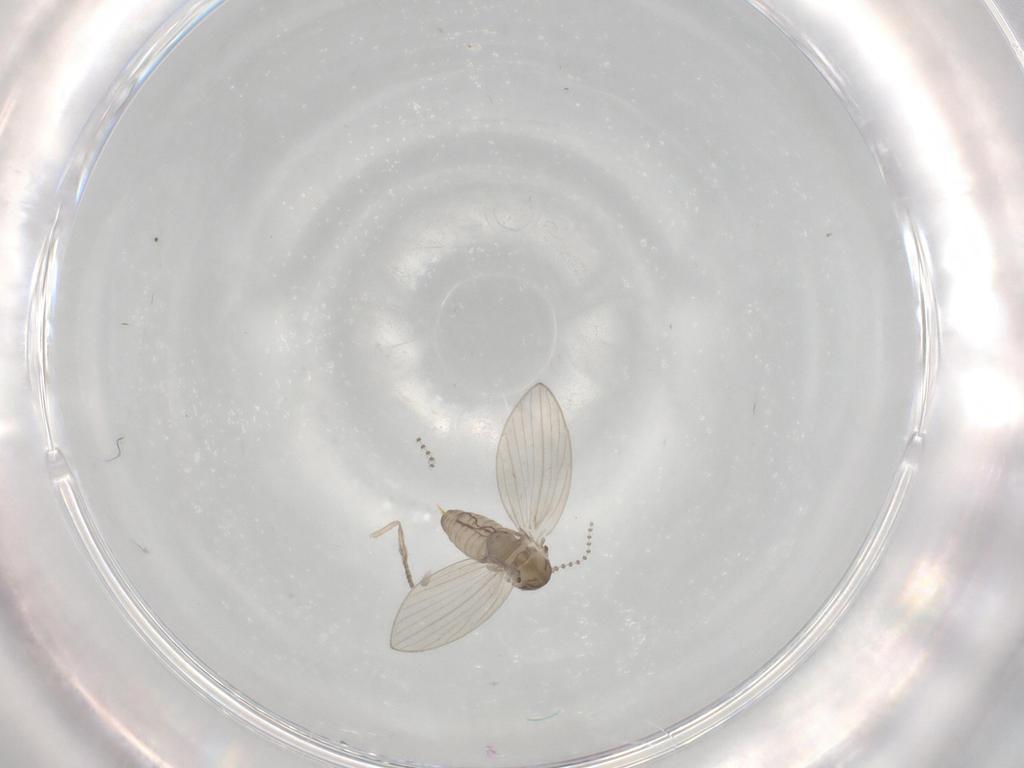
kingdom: Animalia
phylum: Arthropoda
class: Insecta
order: Diptera
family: Psychodidae
